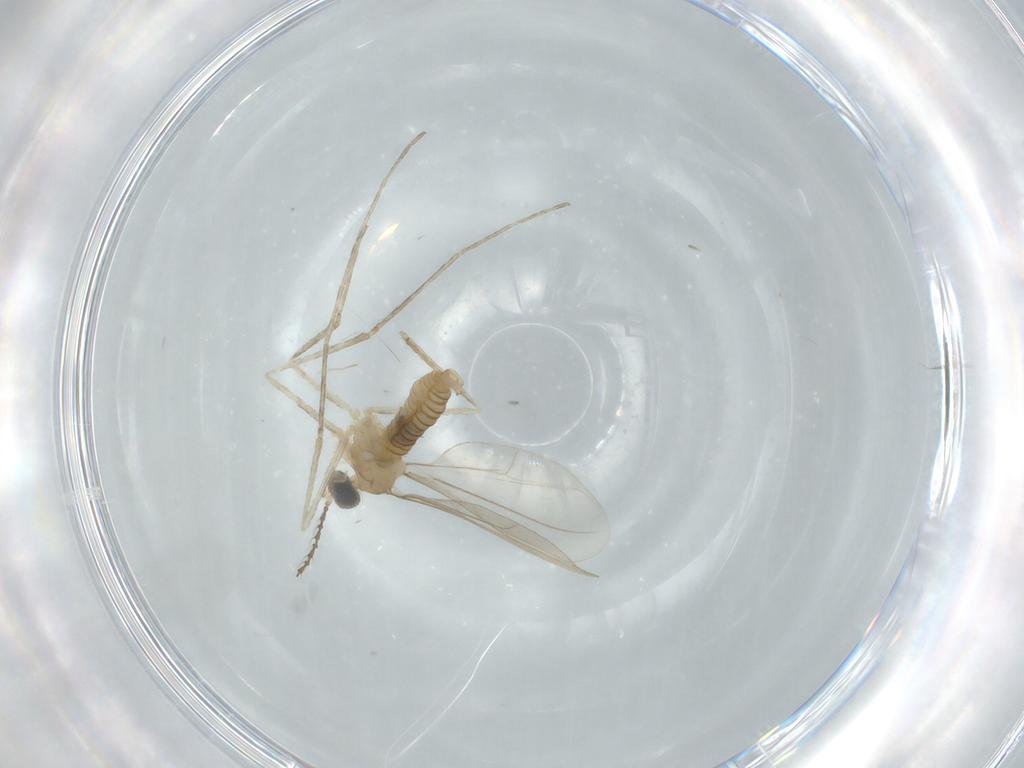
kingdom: Animalia
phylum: Arthropoda
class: Insecta
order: Diptera
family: Cecidomyiidae
